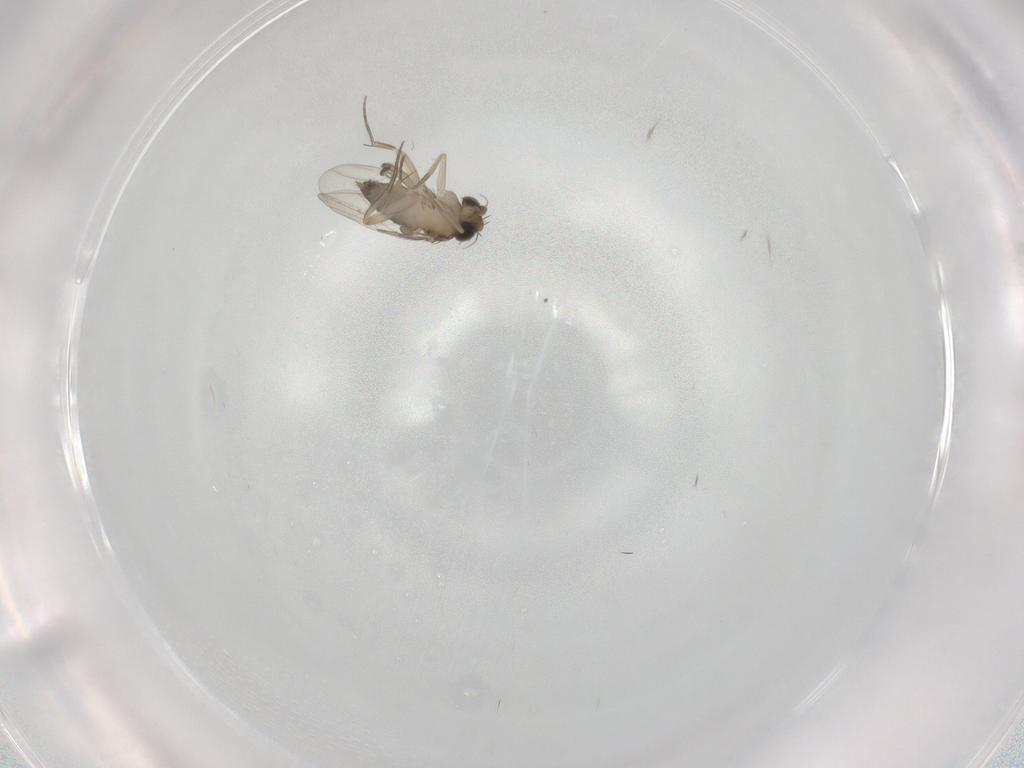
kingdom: Animalia
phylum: Arthropoda
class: Insecta
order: Diptera
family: Phoridae
